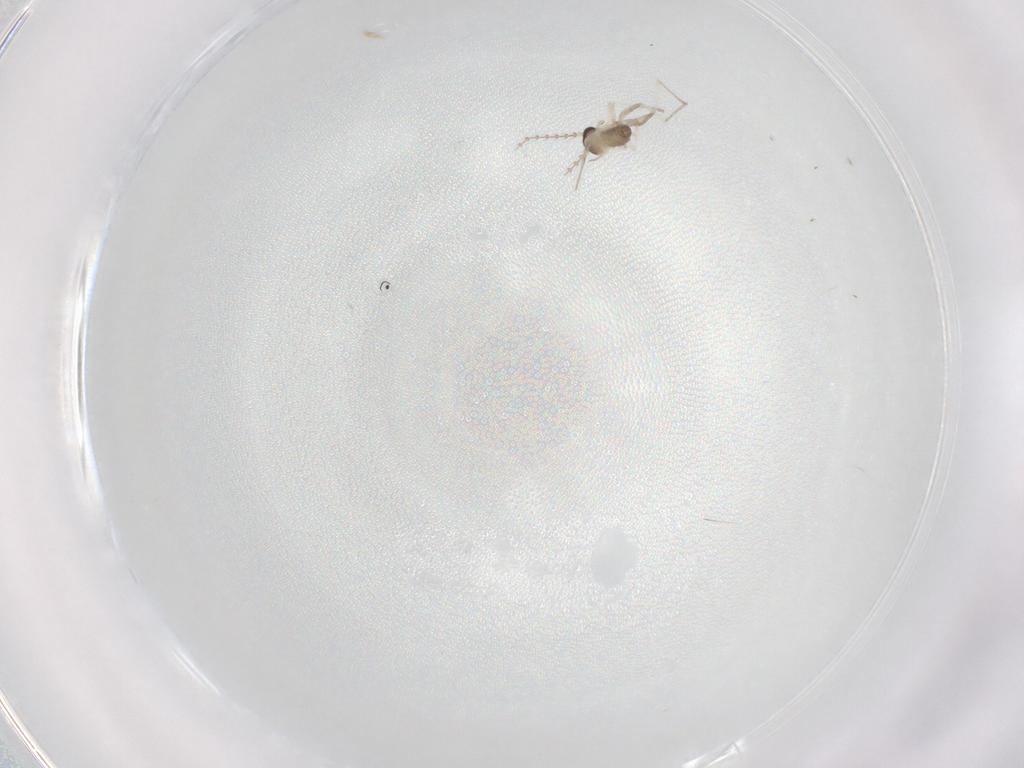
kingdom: Animalia
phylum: Arthropoda
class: Insecta
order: Diptera
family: Cecidomyiidae
